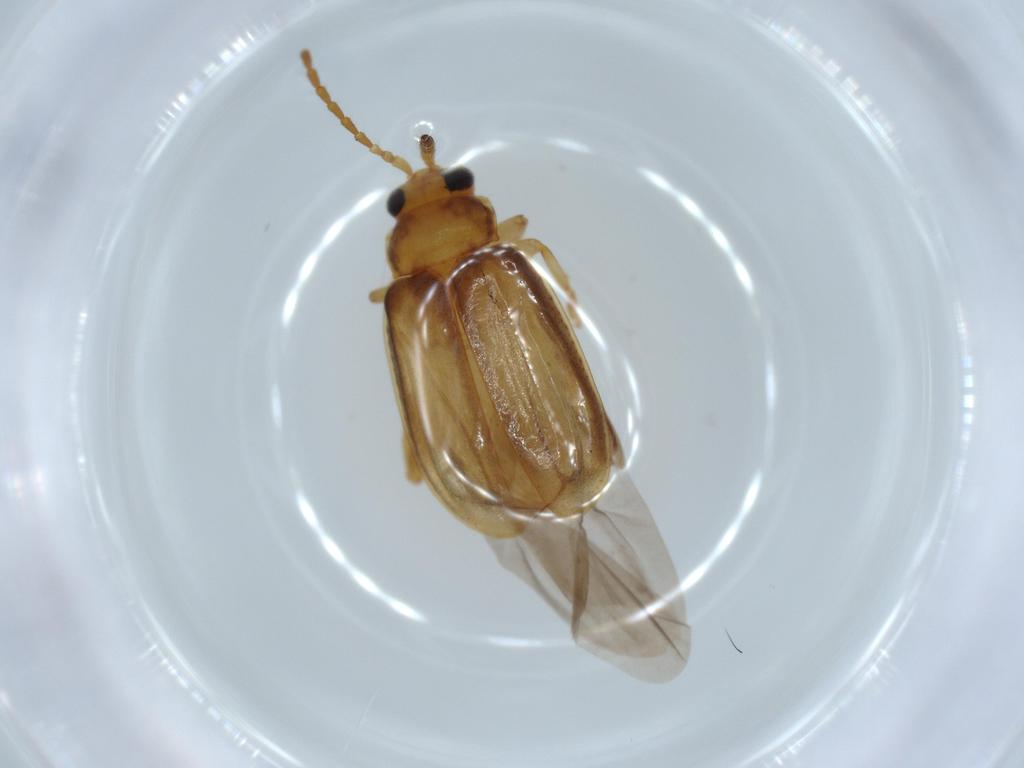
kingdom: Animalia
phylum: Arthropoda
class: Insecta
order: Coleoptera
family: Chrysomelidae
